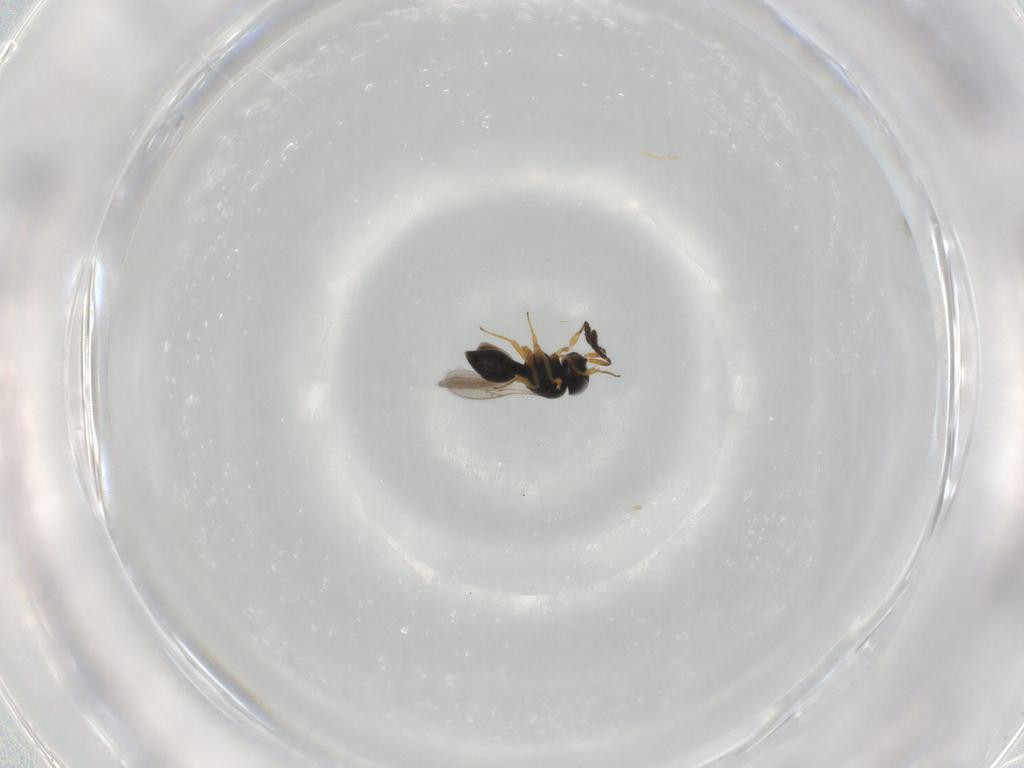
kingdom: Animalia
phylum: Arthropoda
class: Insecta
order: Hymenoptera
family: Scelionidae
